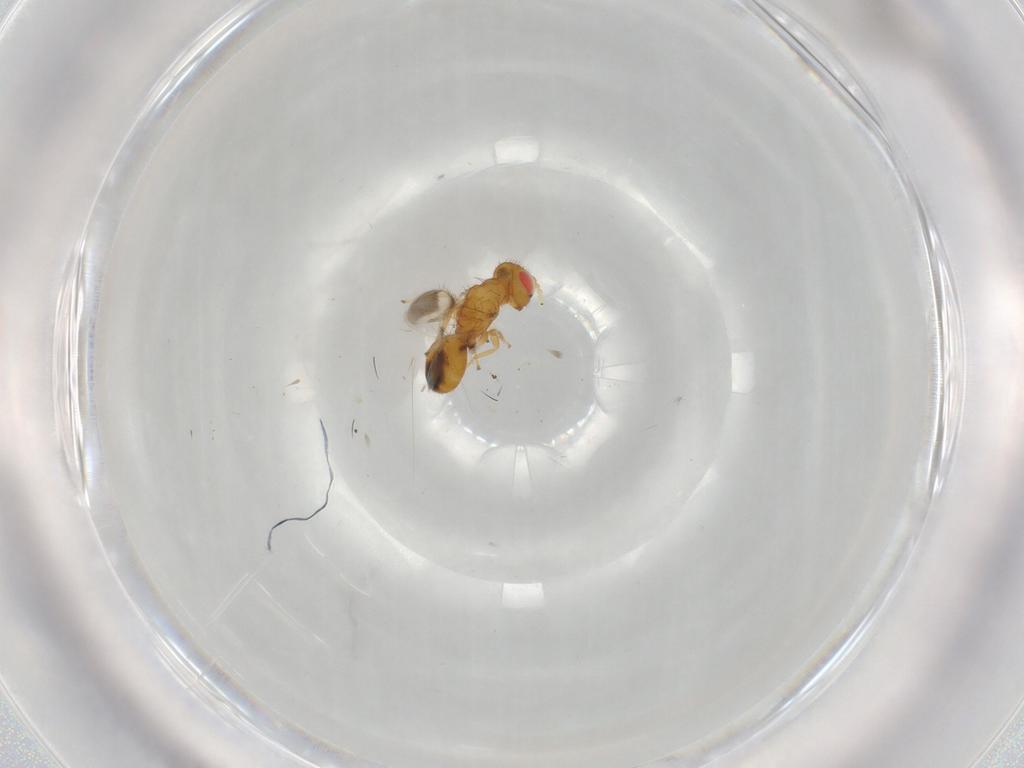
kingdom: Animalia
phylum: Arthropoda
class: Insecta
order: Hymenoptera
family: Eulophidae
